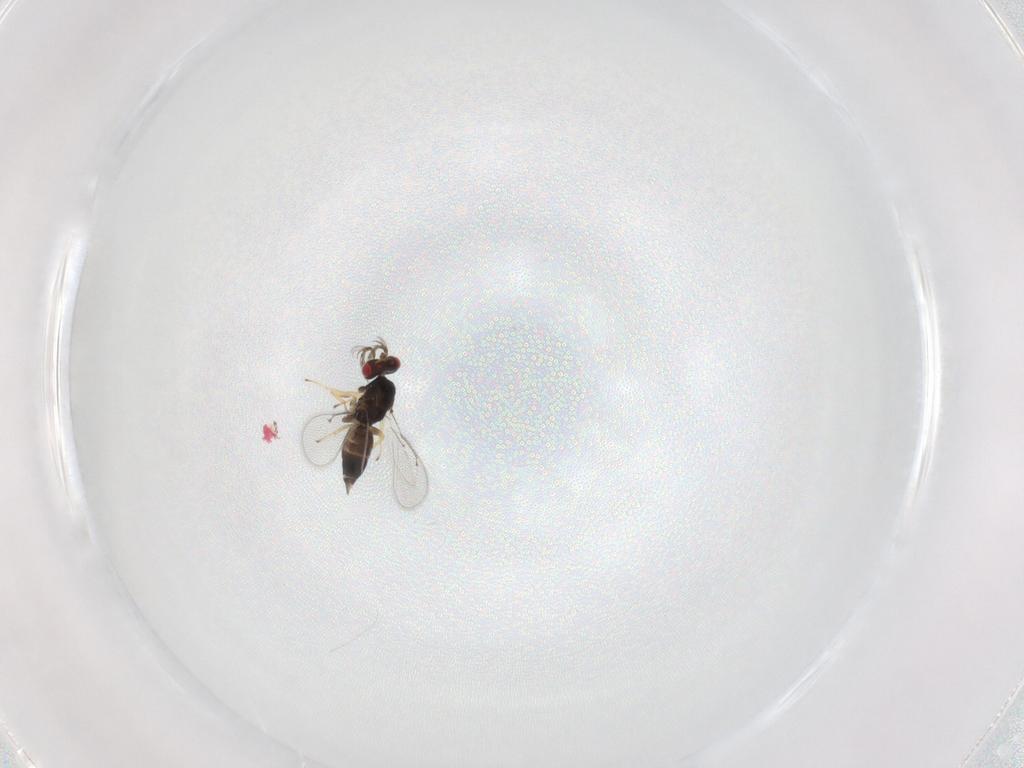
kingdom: Animalia
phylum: Arthropoda
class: Insecta
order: Hymenoptera
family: Eulophidae
